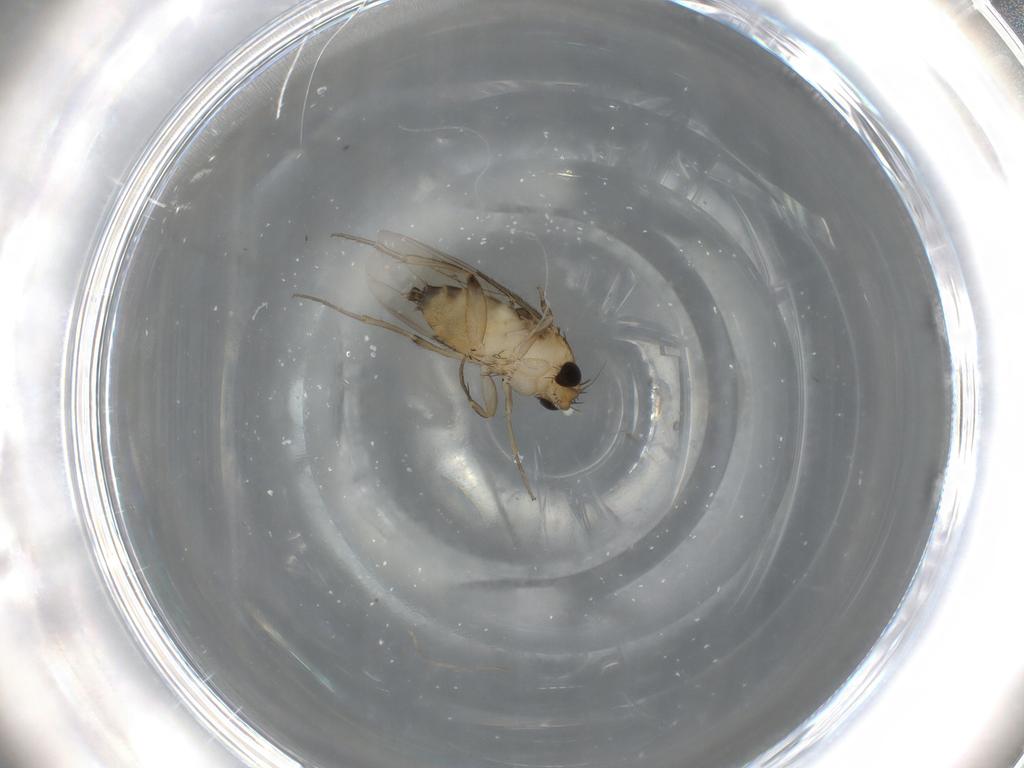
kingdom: Animalia
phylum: Arthropoda
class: Insecta
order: Diptera
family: Phoridae
